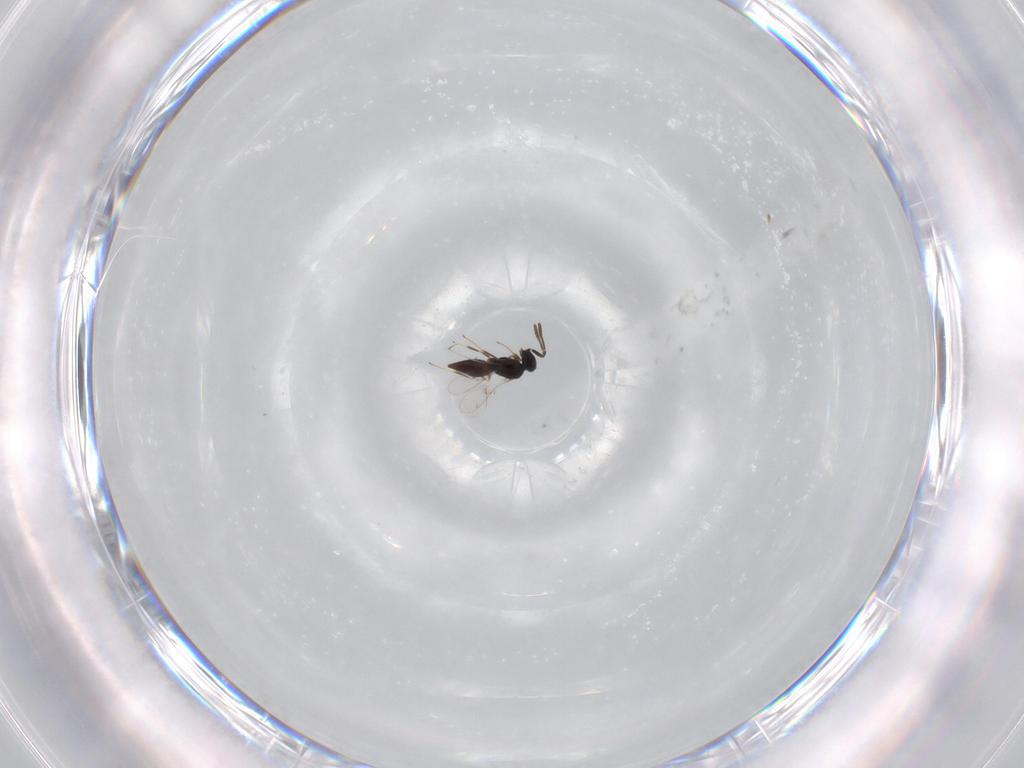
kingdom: Animalia
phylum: Arthropoda
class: Insecta
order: Hymenoptera
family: Scelionidae
